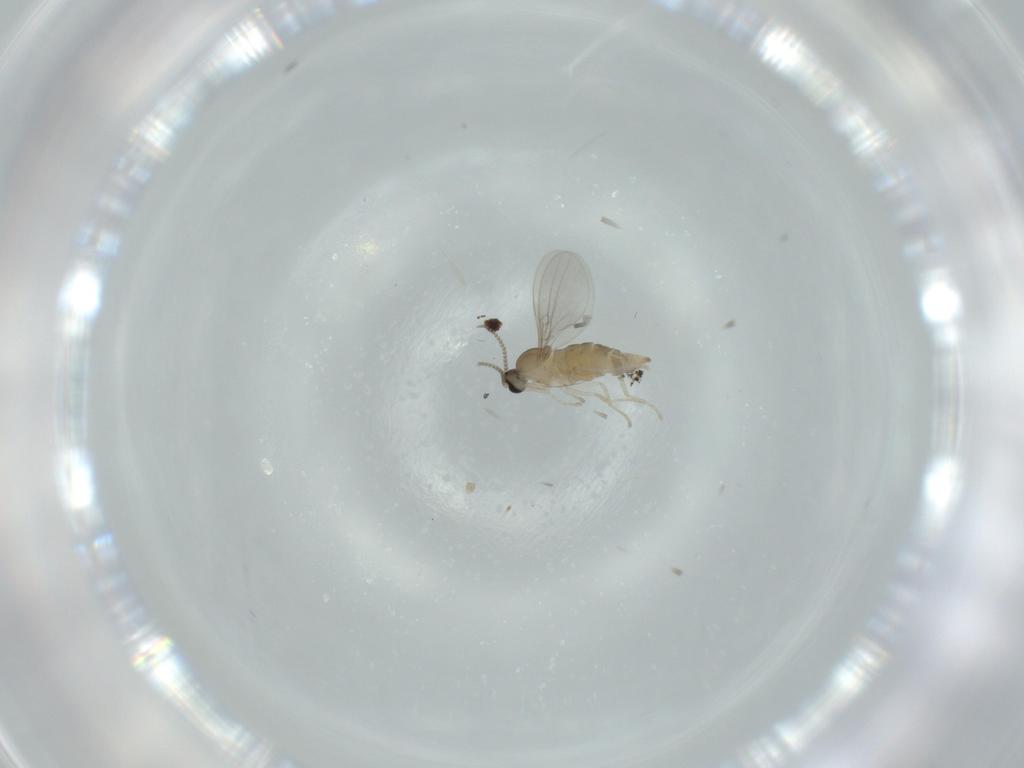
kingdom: Animalia
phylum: Arthropoda
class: Insecta
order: Diptera
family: Cecidomyiidae
